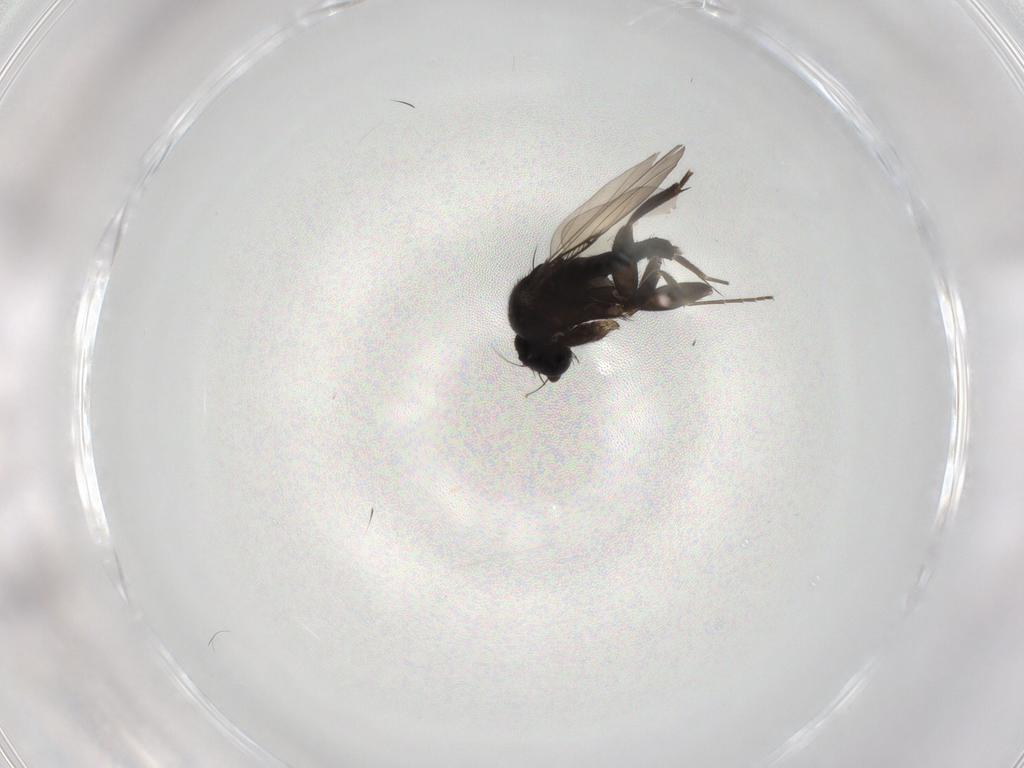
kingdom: Animalia
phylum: Arthropoda
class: Insecta
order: Diptera
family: Phoridae
